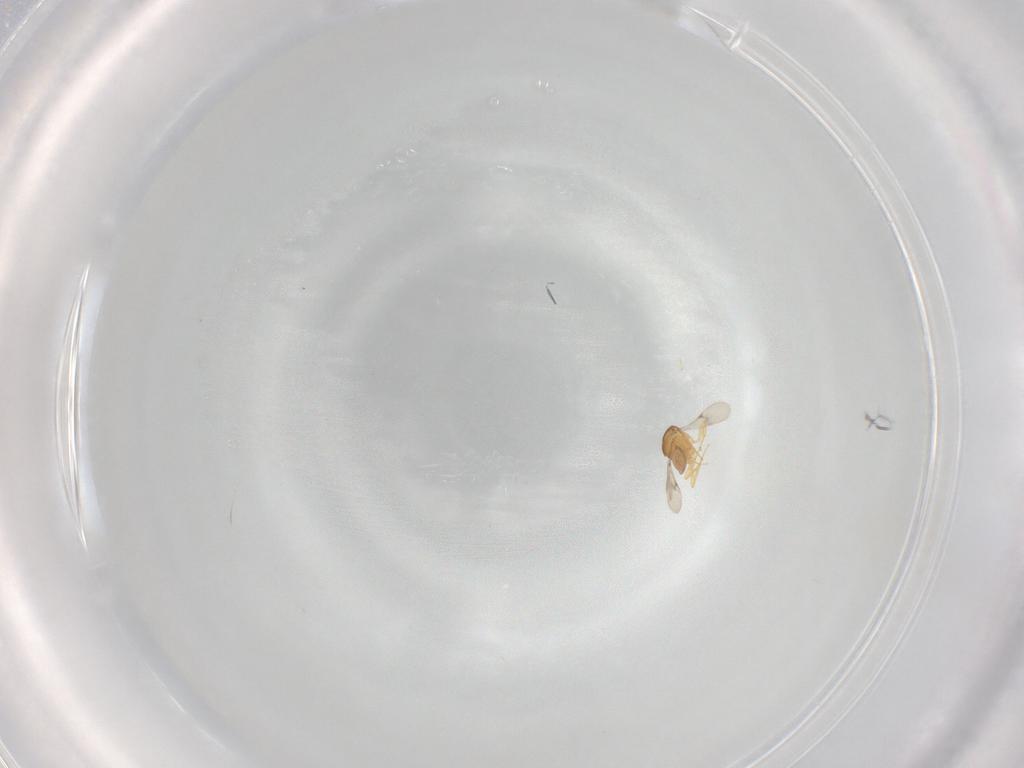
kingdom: Animalia
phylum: Arthropoda
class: Insecta
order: Hymenoptera
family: Scelionidae
